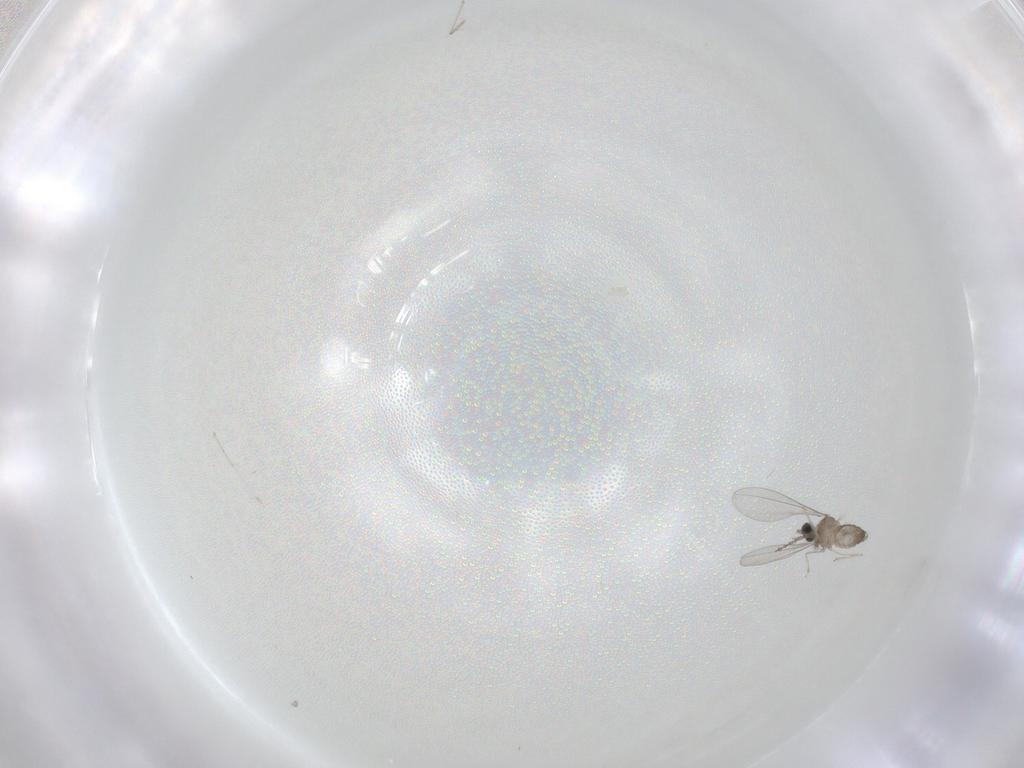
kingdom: Animalia
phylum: Arthropoda
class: Insecta
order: Diptera
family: Cecidomyiidae
